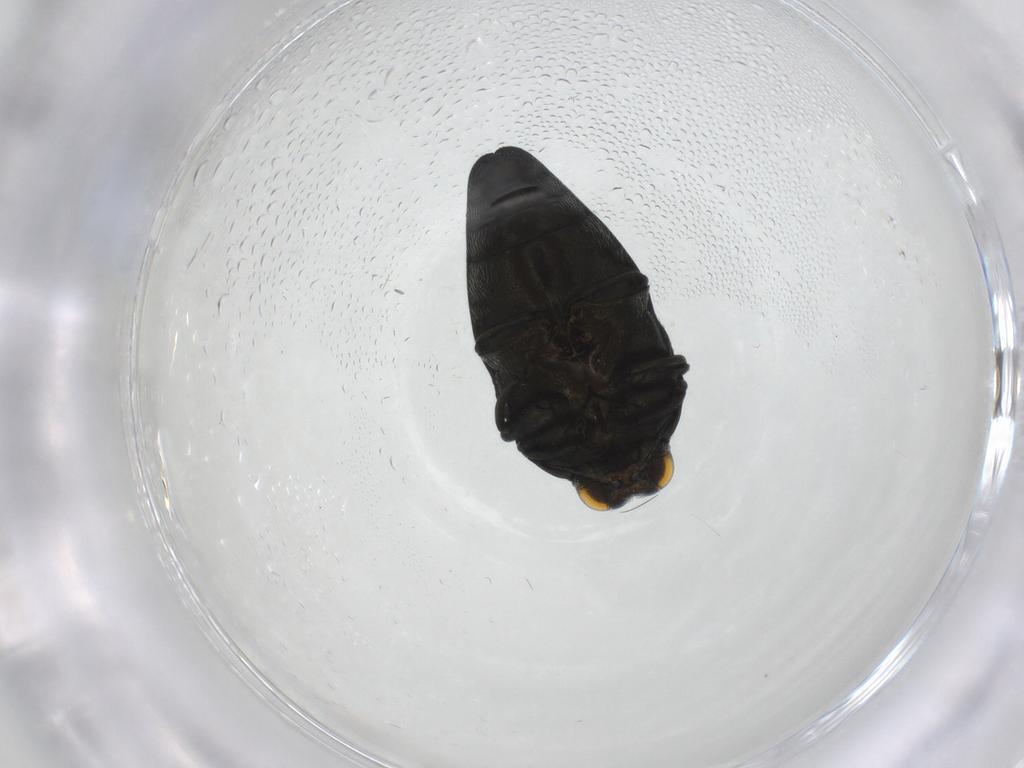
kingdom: Animalia
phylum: Arthropoda
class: Insecta
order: Coleoptera
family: Buprestidae
